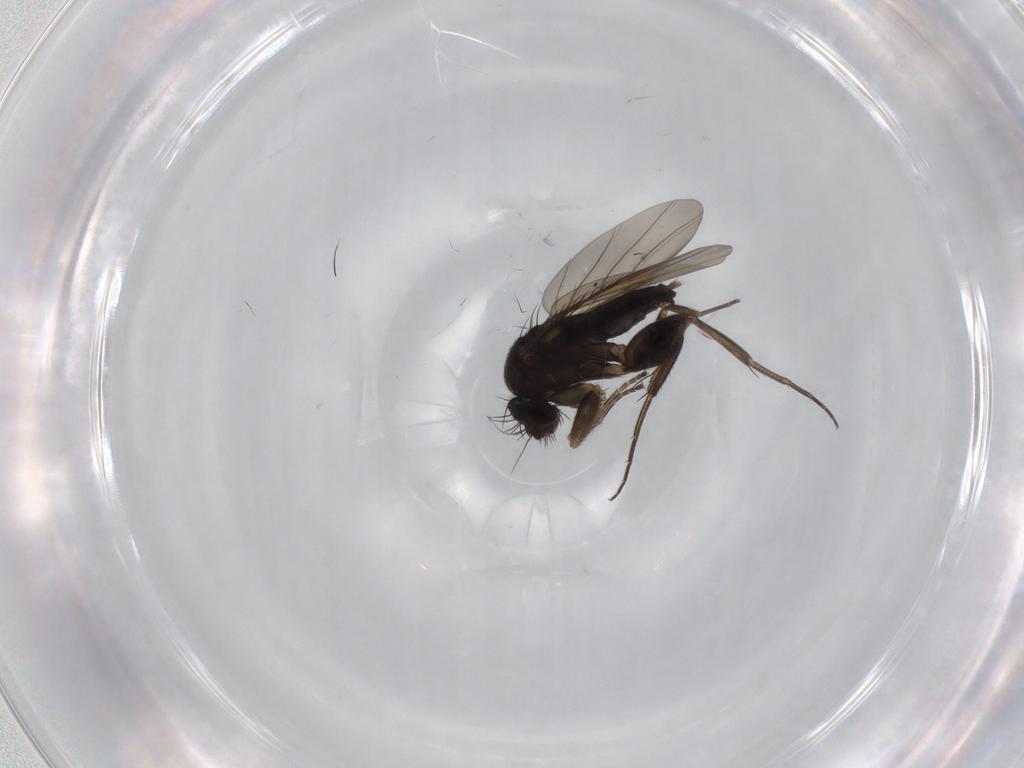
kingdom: Animalia
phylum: Arthropoda
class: Insecta
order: Diptera
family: Phoridae
